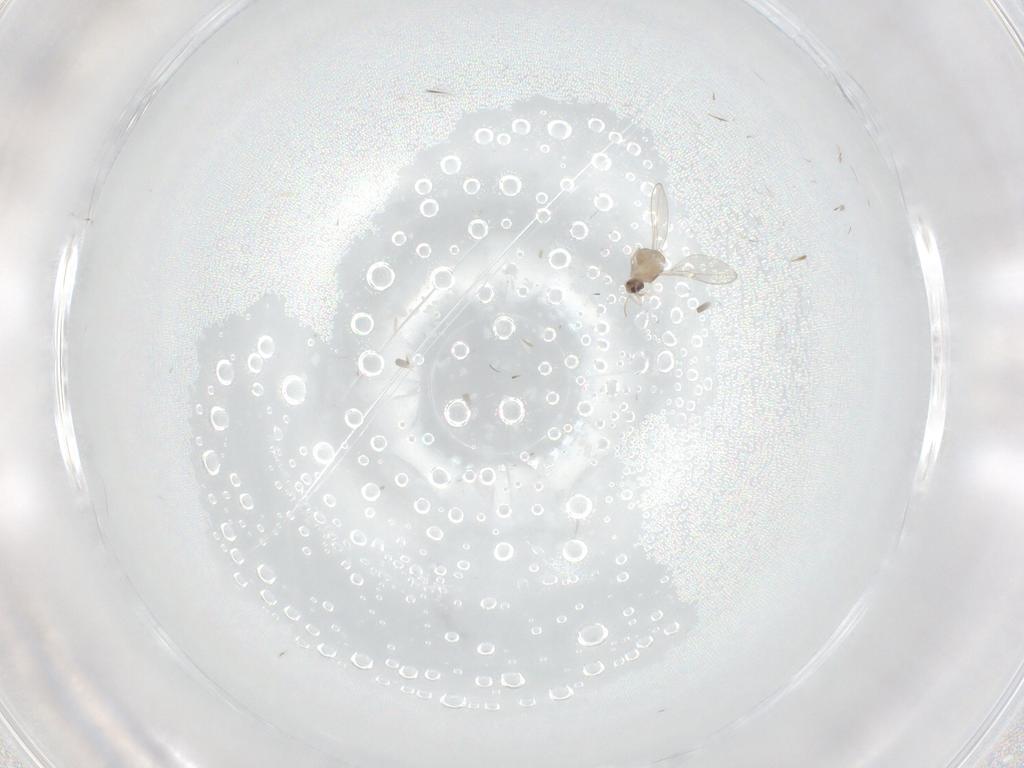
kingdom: Animalia
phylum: Arthropoda
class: Insecta
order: Diptera
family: Cecidomyiidae
